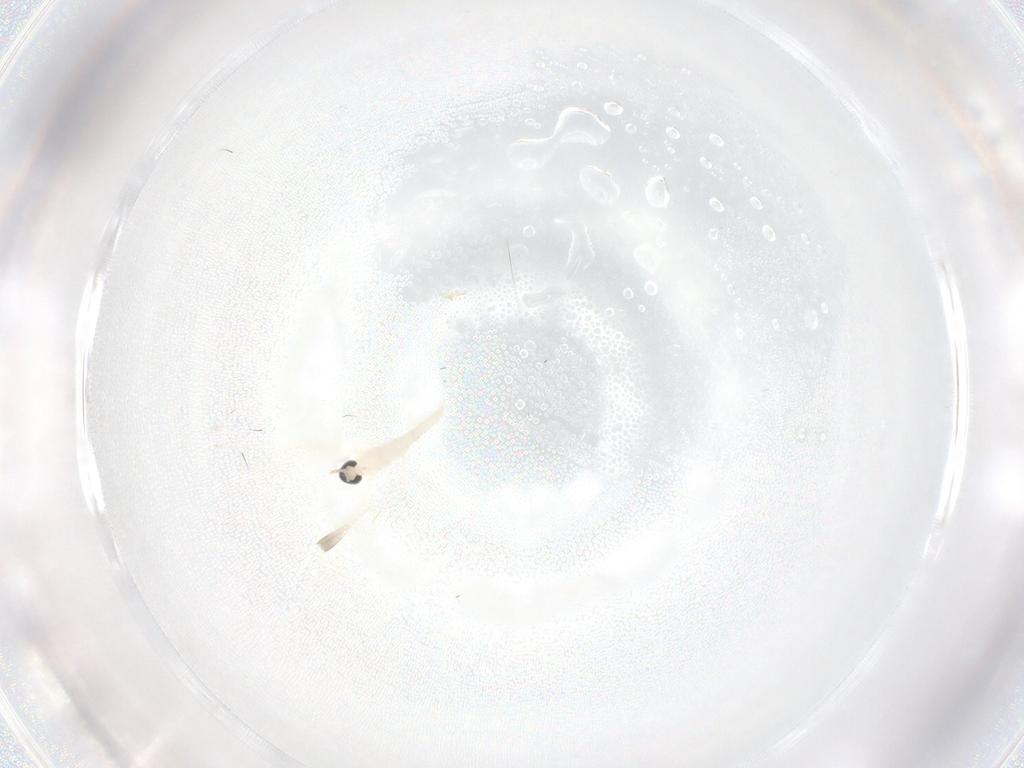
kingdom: Animalia
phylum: Arthropoda
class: Insecta
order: Diptera
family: Cecidomyiidae
